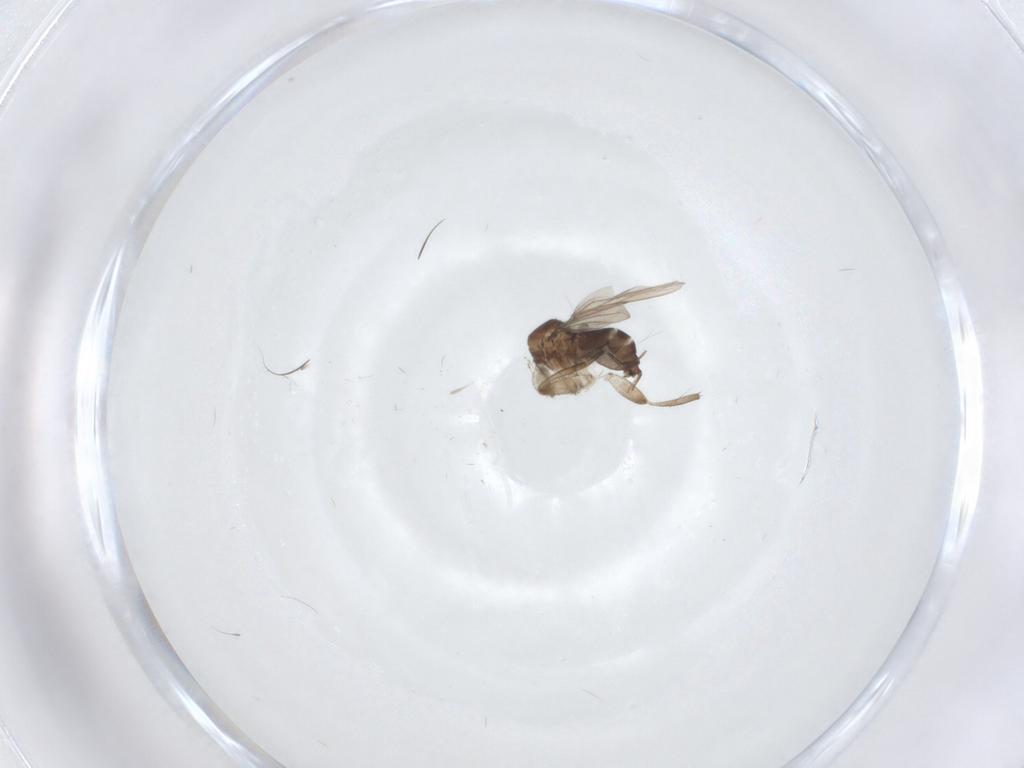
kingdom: Animalia
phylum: Arthropoda
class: Insecta
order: Diptera
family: Phoridae
